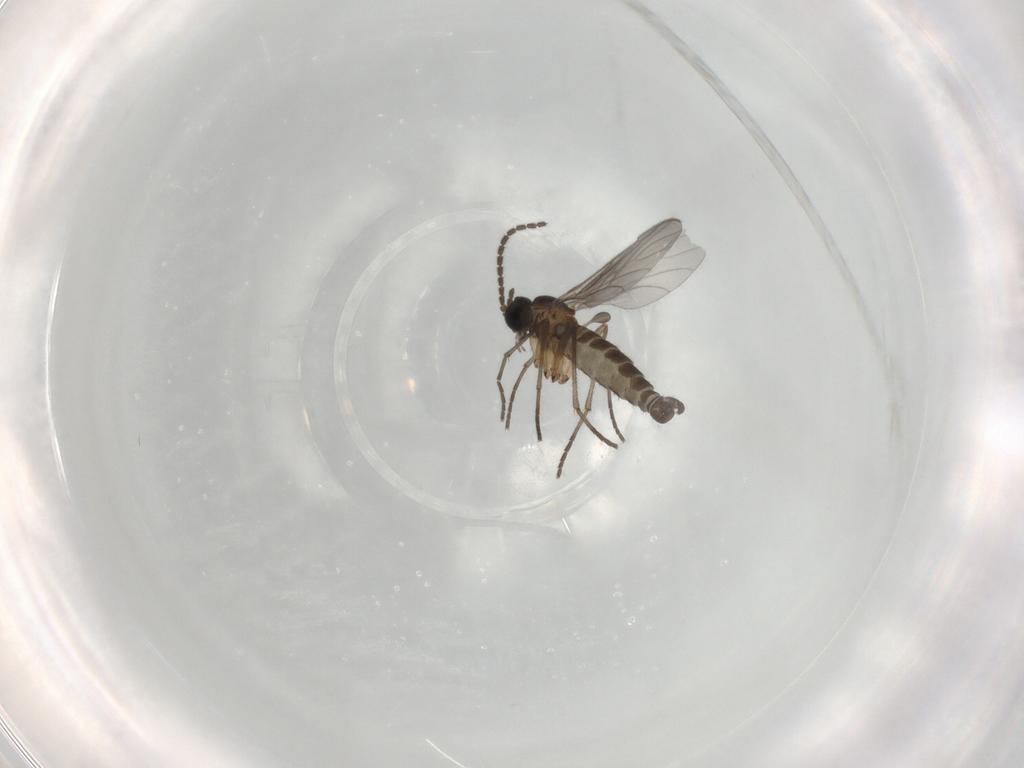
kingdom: Animalia
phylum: Arthropoda
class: Insecta
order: Diptera
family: Sciaridae
